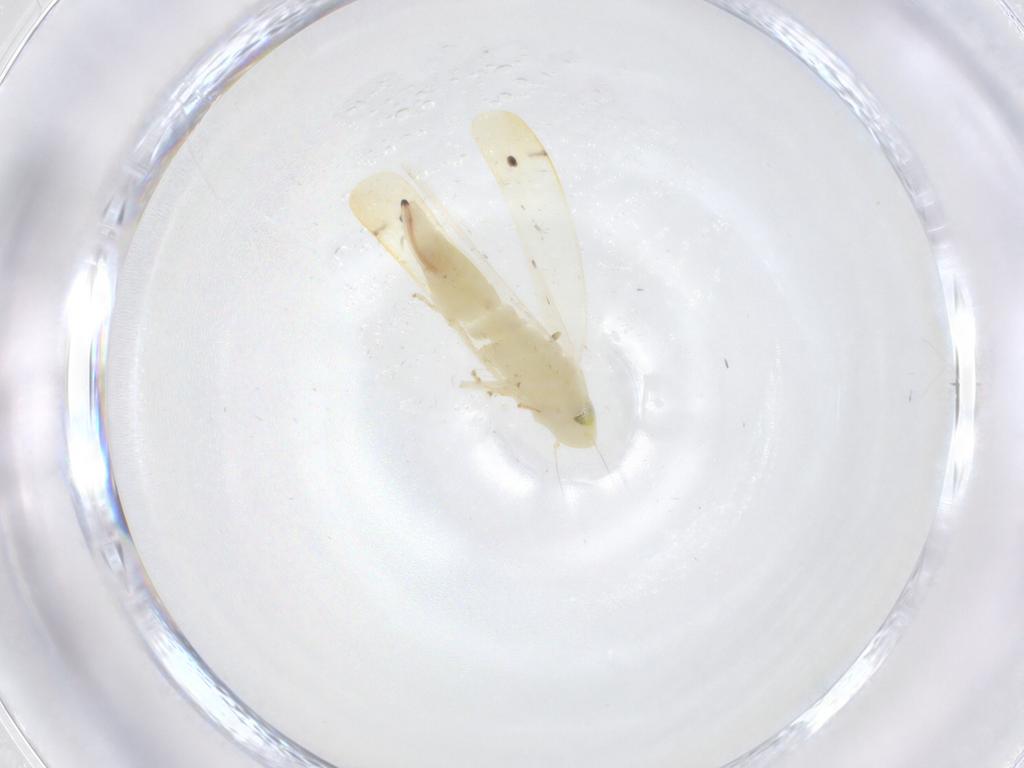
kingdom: Animalia
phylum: Arthropoda
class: Insecta
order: Hemiptera
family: Cicadellidae
